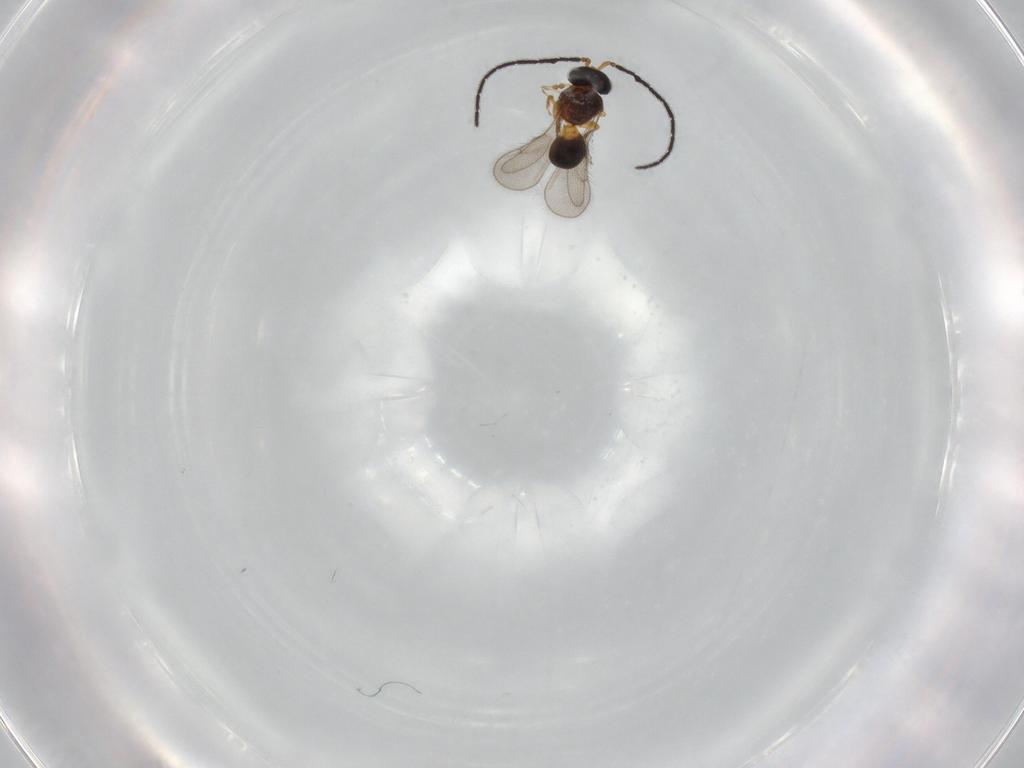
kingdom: Animalia
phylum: Arthropoda
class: Insecta
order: Hymenoptera
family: Scelionidae
